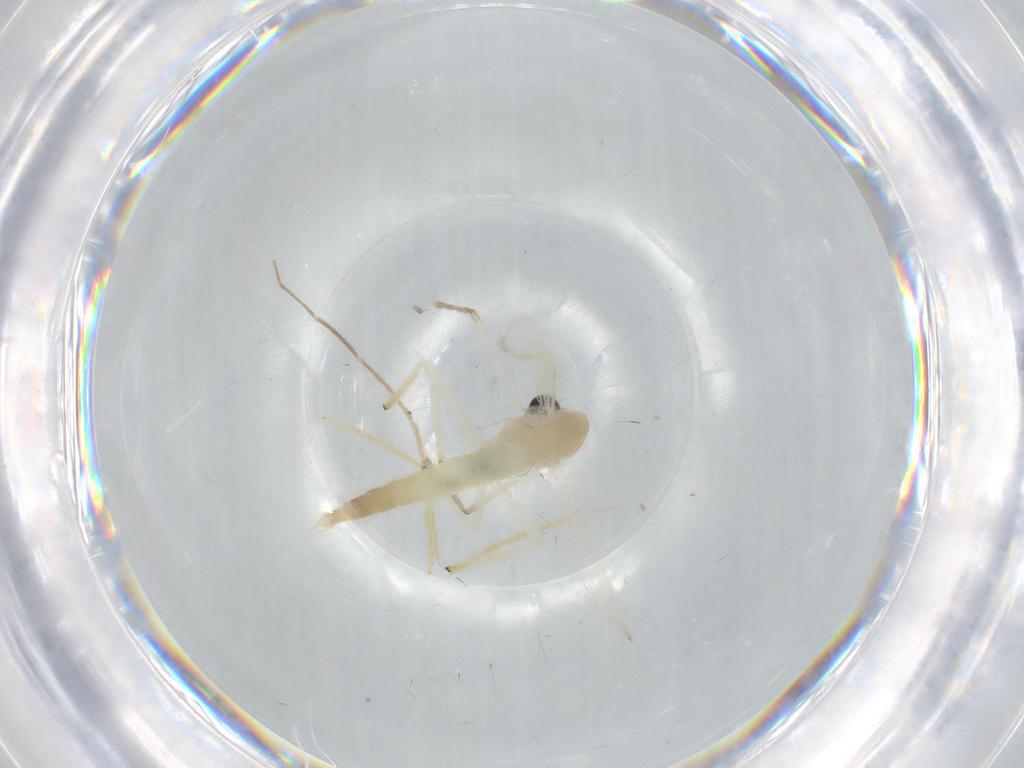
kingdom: Animalia
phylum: Arthropoda
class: Insecta
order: Diptera
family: Chironomidae
